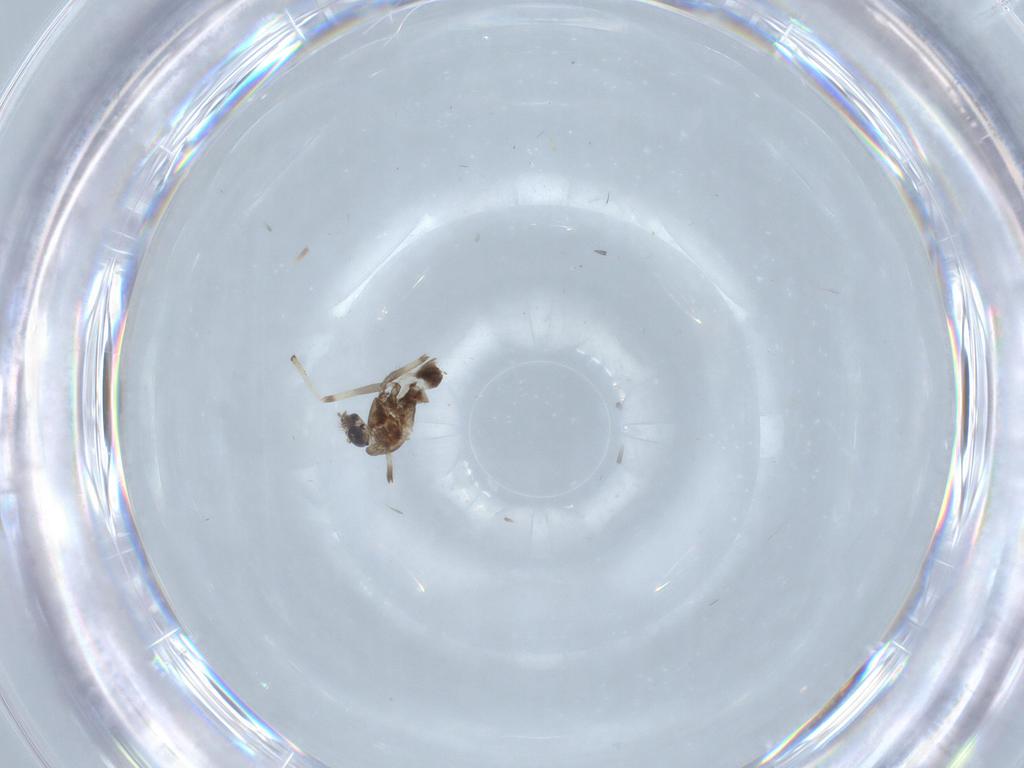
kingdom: Animalia
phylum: Arthropoda
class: Insecta
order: Diptera
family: Chironomidae
